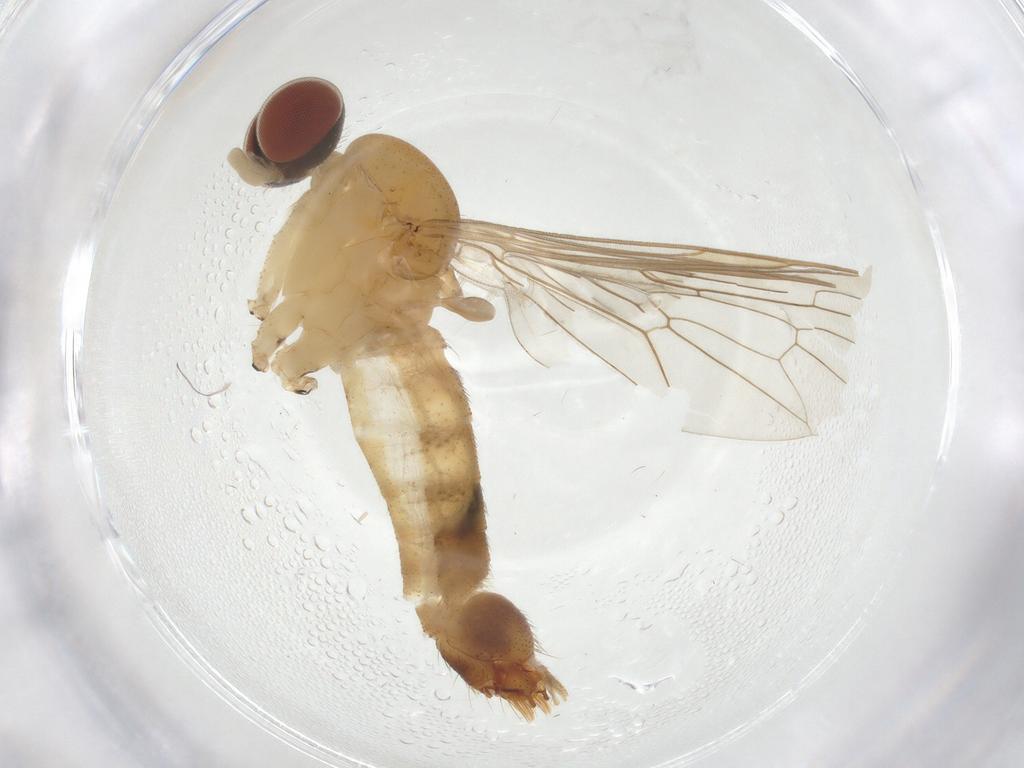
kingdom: Animalia
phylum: Arthropoda
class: Insecta
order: Diptera
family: Apsilocephalidae
